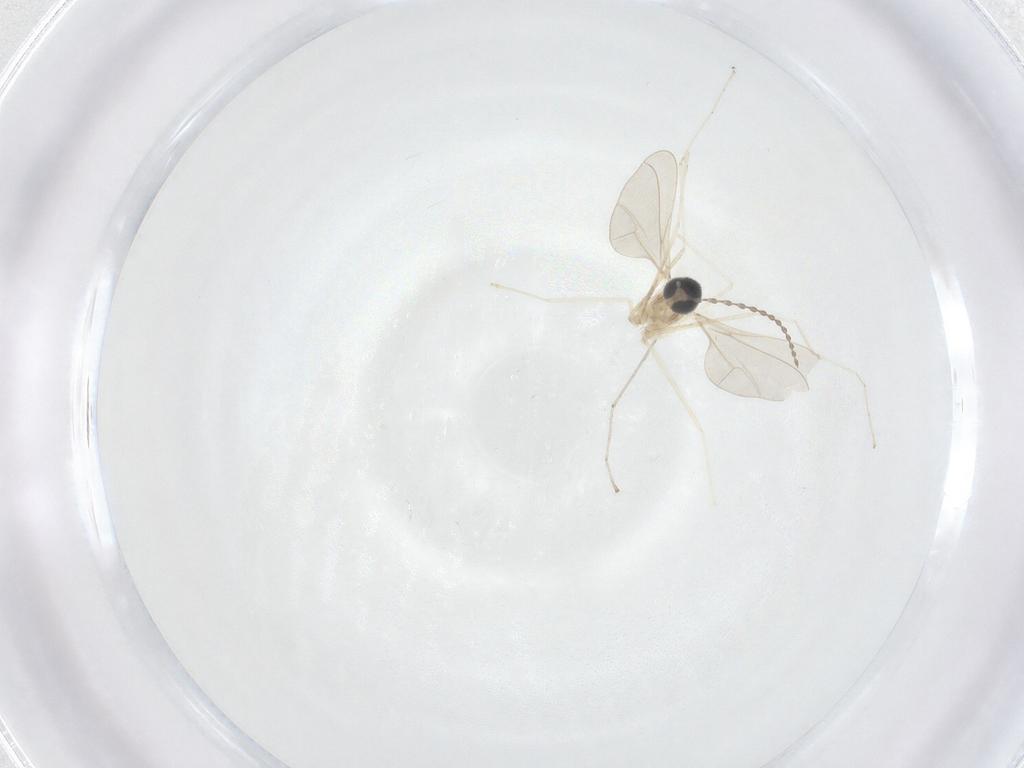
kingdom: Animalia
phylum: Arthropoda
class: Insecta
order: Diptera
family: Cecidomyiidae
